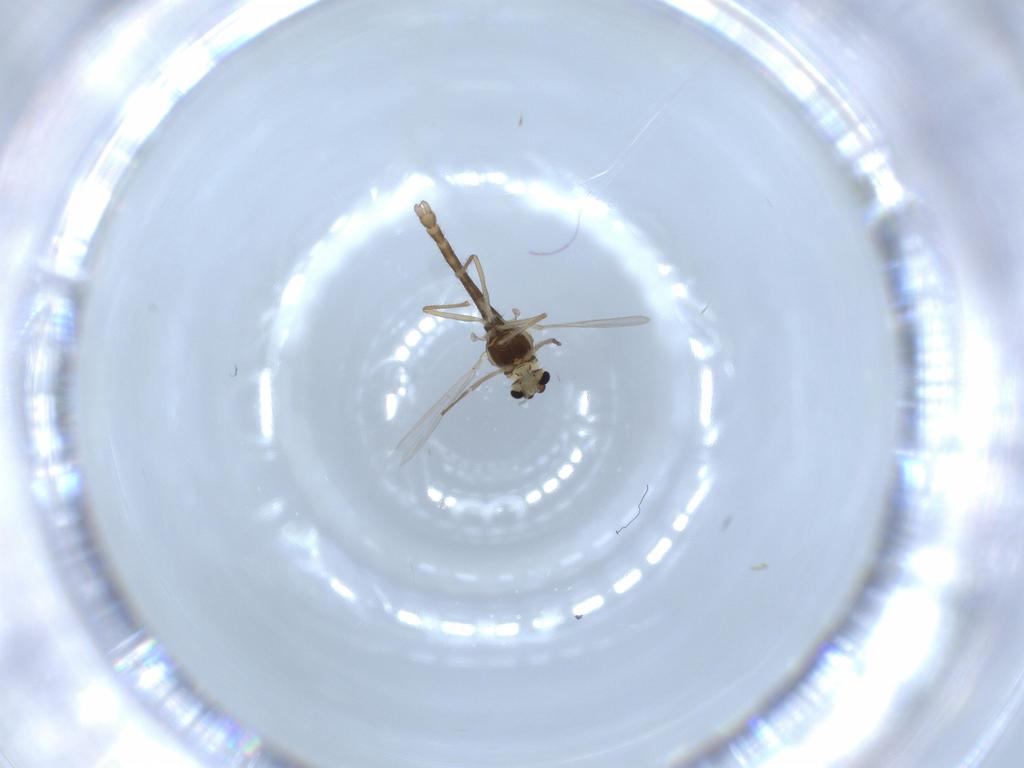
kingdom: Animalia
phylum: Arthropoda
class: Insecta
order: Diptera
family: Chironomidae
